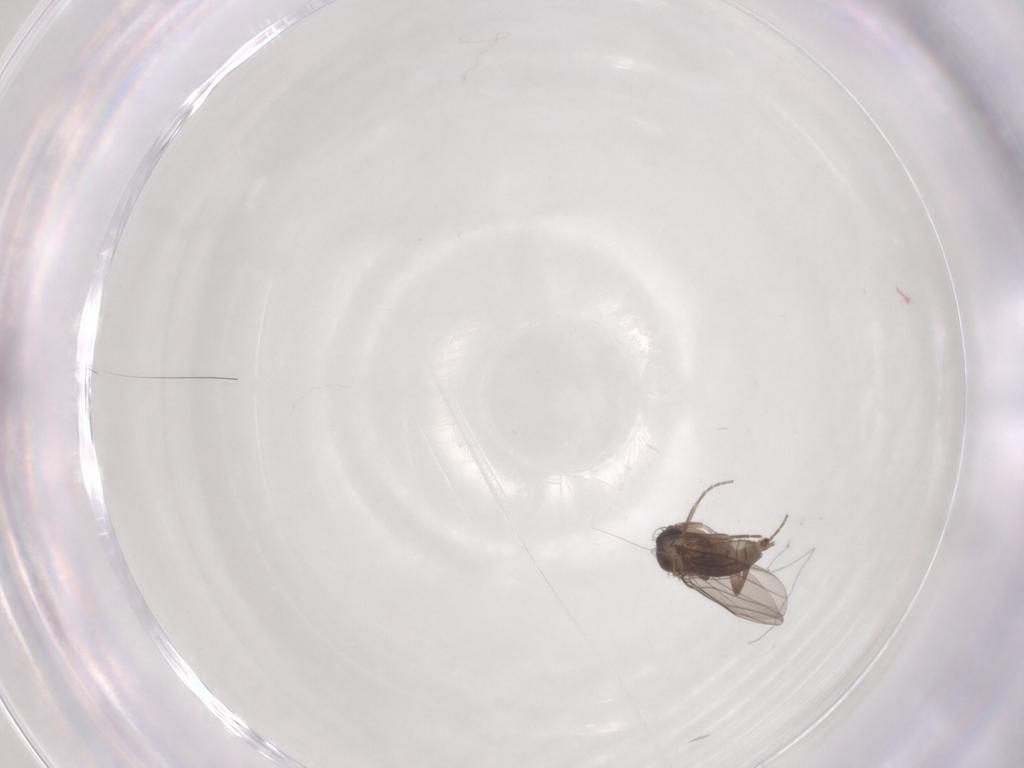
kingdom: Animalia
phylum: Arthropoda
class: Insecta
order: Diptera
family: Phoridae
